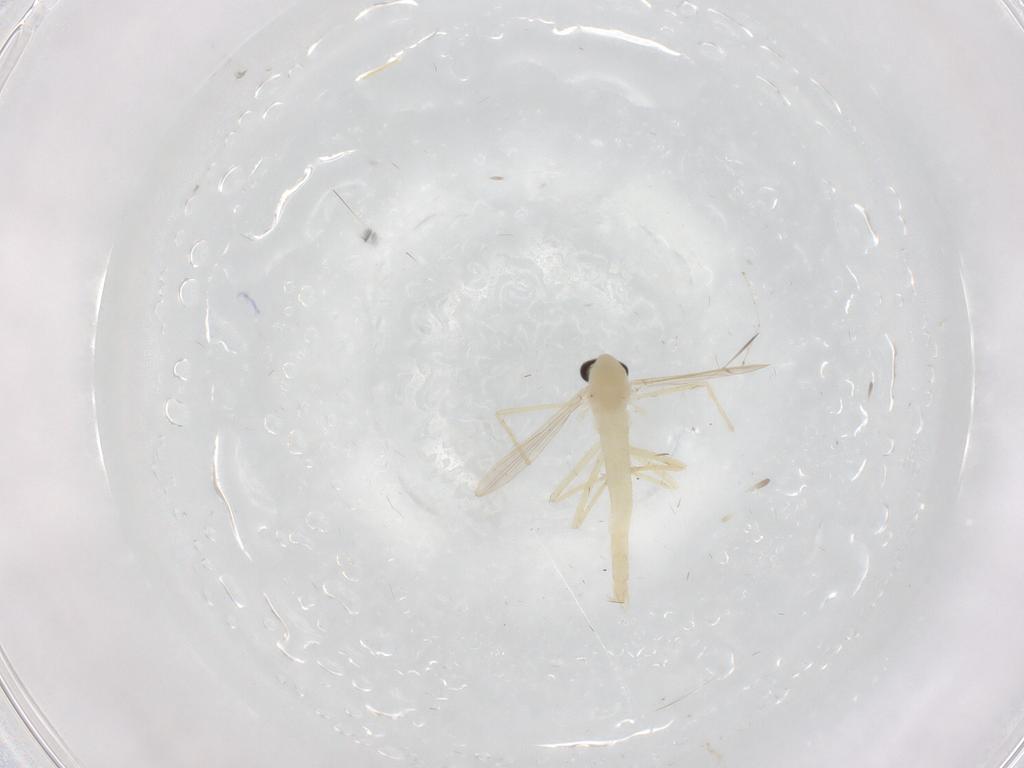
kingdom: Animalia
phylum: Arthropoda
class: Insecta
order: Diptera
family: Chironomidae
